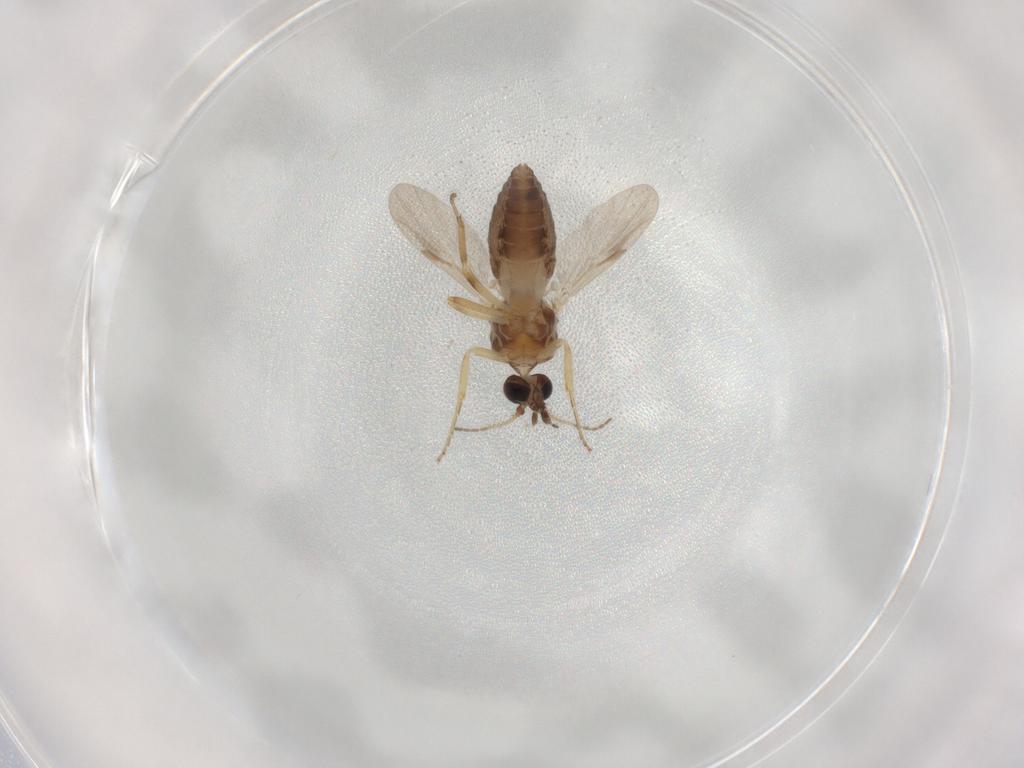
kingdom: Animalia
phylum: Arthropoda
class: Insecta
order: Diptera
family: Ceratopogonidae
